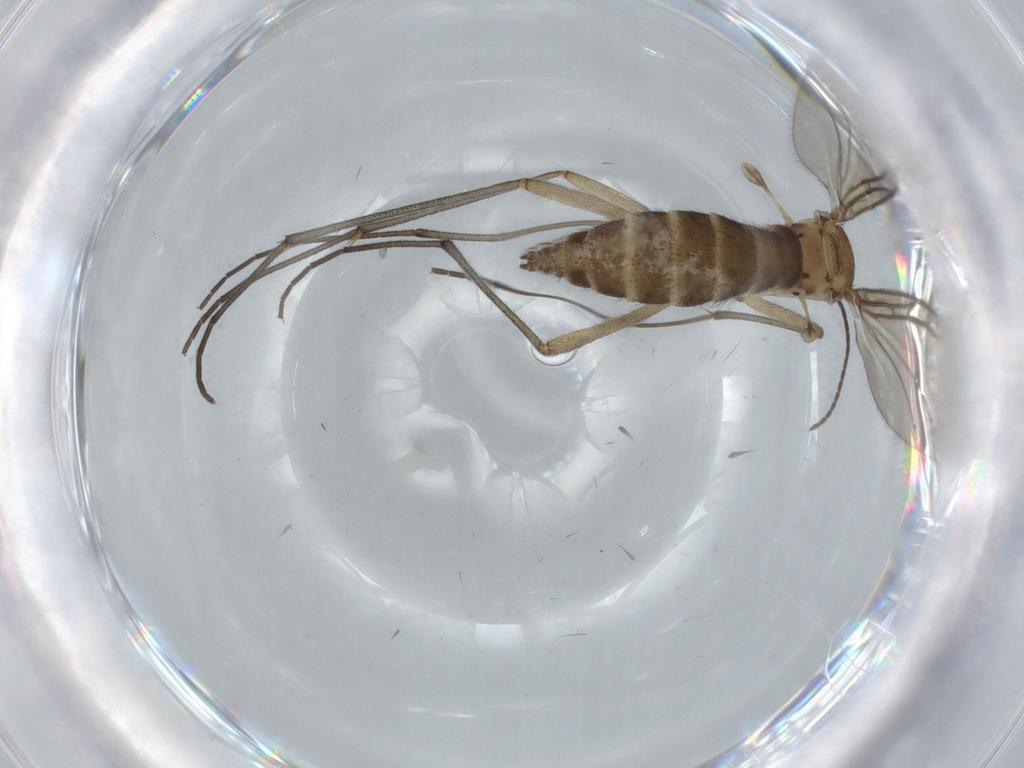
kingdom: Animalia
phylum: Arthropoda
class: Insecta
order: Diptera
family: Sciaridae
